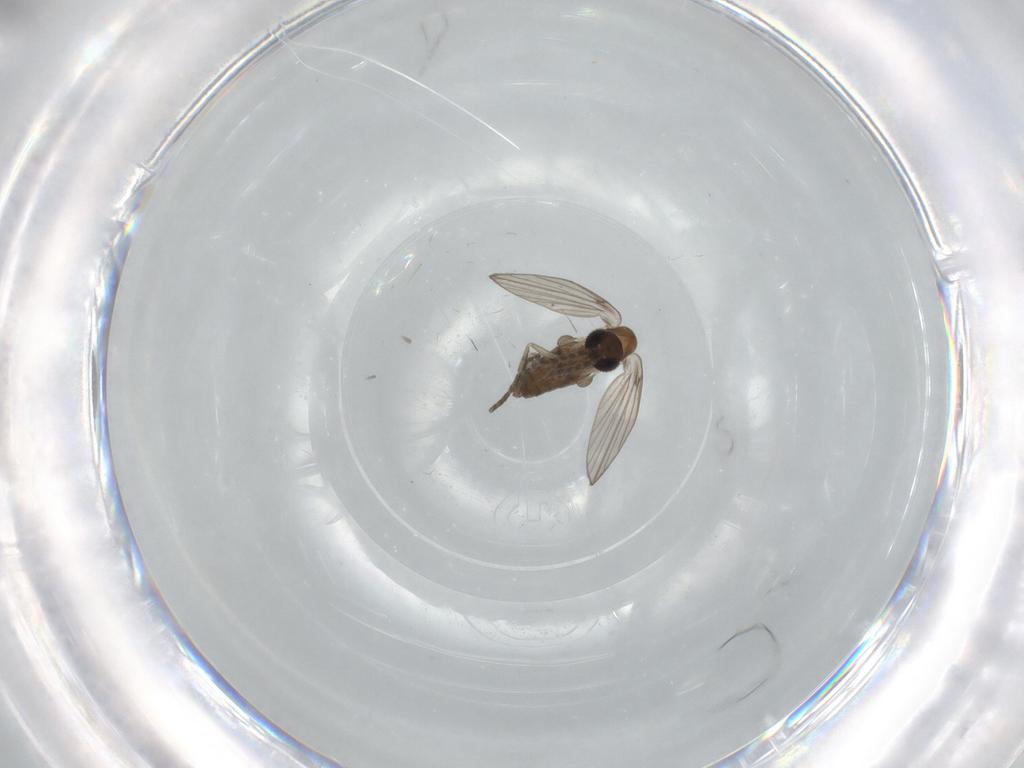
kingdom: Animalia
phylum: Arthropoda
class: Insecta
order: Diptera
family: Psychodidae
